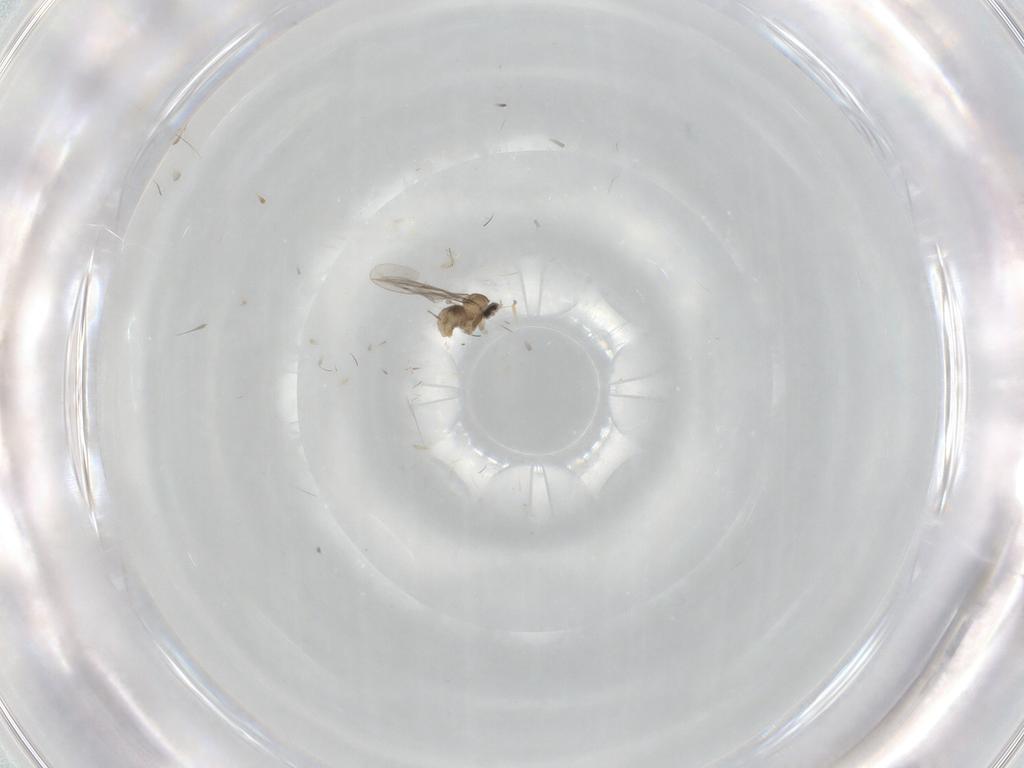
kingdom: Animalia
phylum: Arthropoda
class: Insecta
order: Diptera
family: Cecidomyiidae
